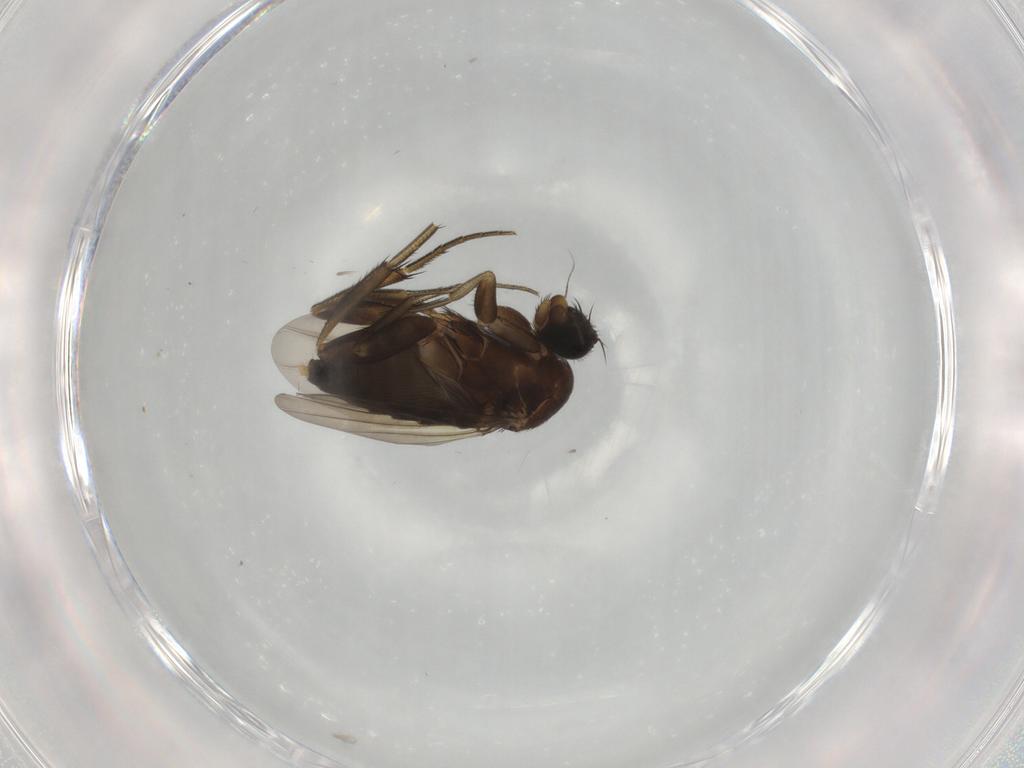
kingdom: Animalia
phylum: Arthropoda
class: Insecta
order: Diptera
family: Phoridae
